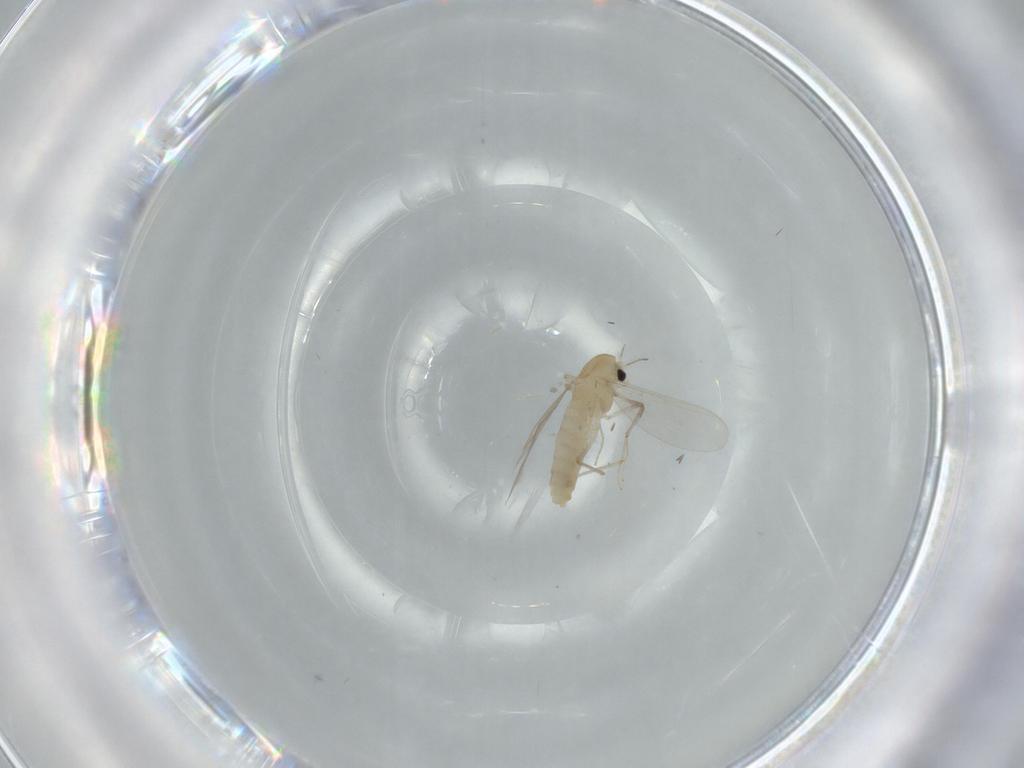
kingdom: Animalia
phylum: Arthropoda
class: Insecta
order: Diptera
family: Chironomidae
